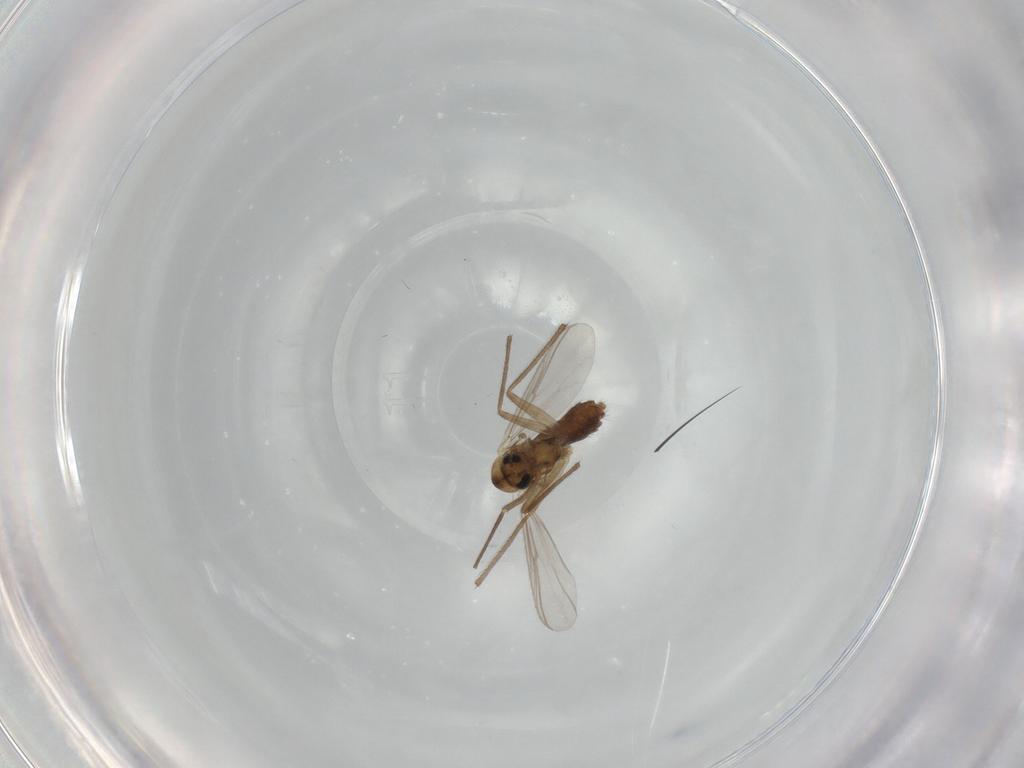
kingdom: Animalia
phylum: Arthropoda
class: Insecta
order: Diptera
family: Chironomidae
